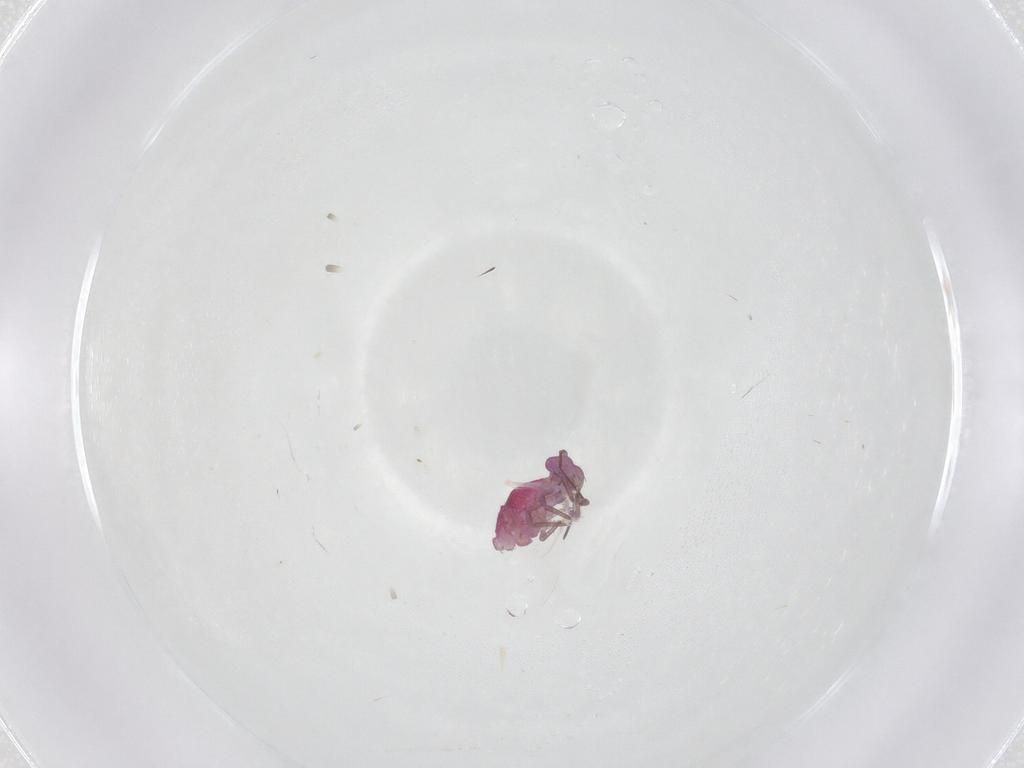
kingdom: Animalia
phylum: Arthropoda
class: Collembola
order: Symphypleona
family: Sminthuridae
